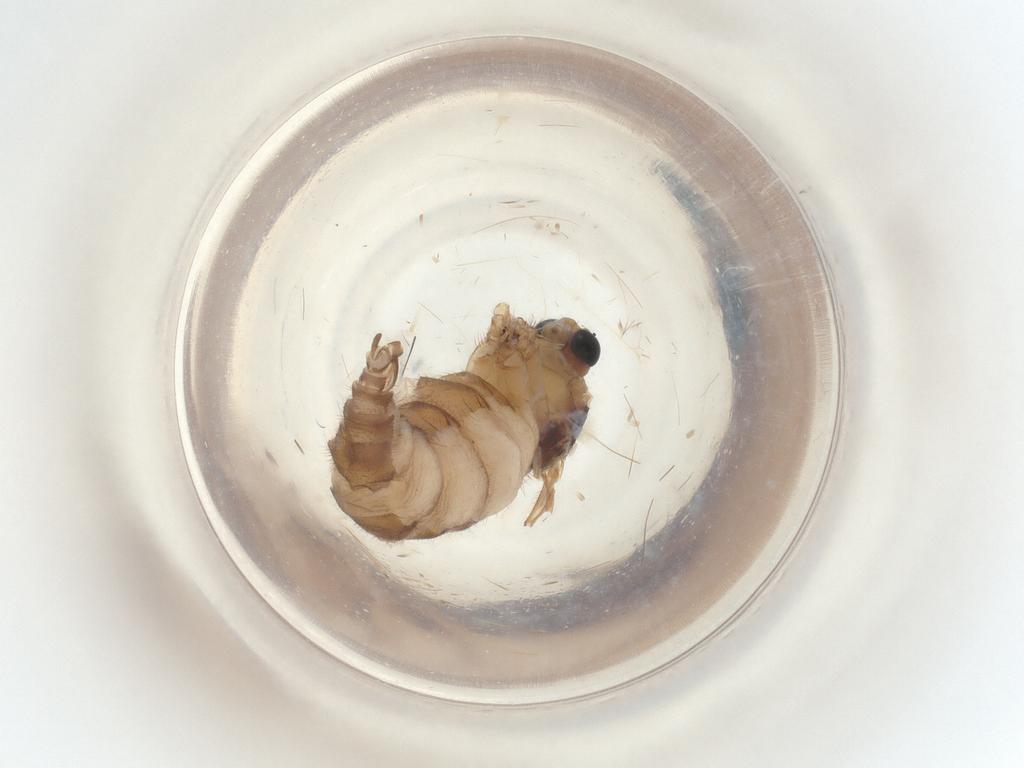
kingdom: Animalia
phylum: Arthropoda
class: Insecta
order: Diptera
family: Sciaridae
